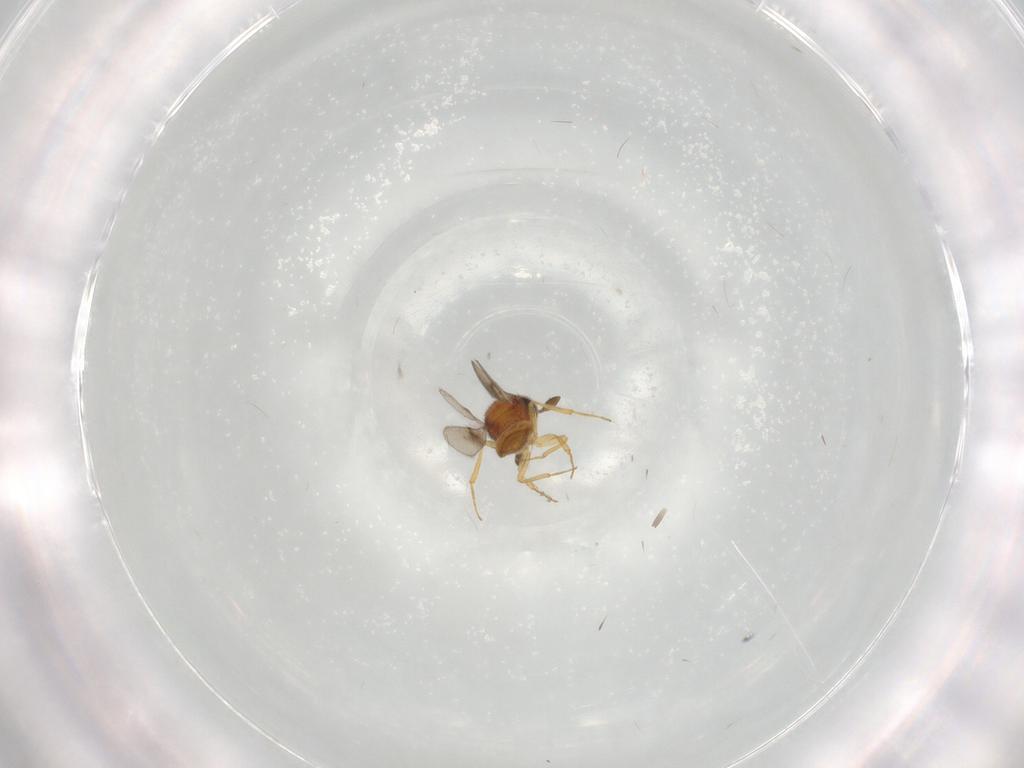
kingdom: Animalia
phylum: Arthropoda
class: Insecta
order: Hymenoptera
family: Scelionidae
